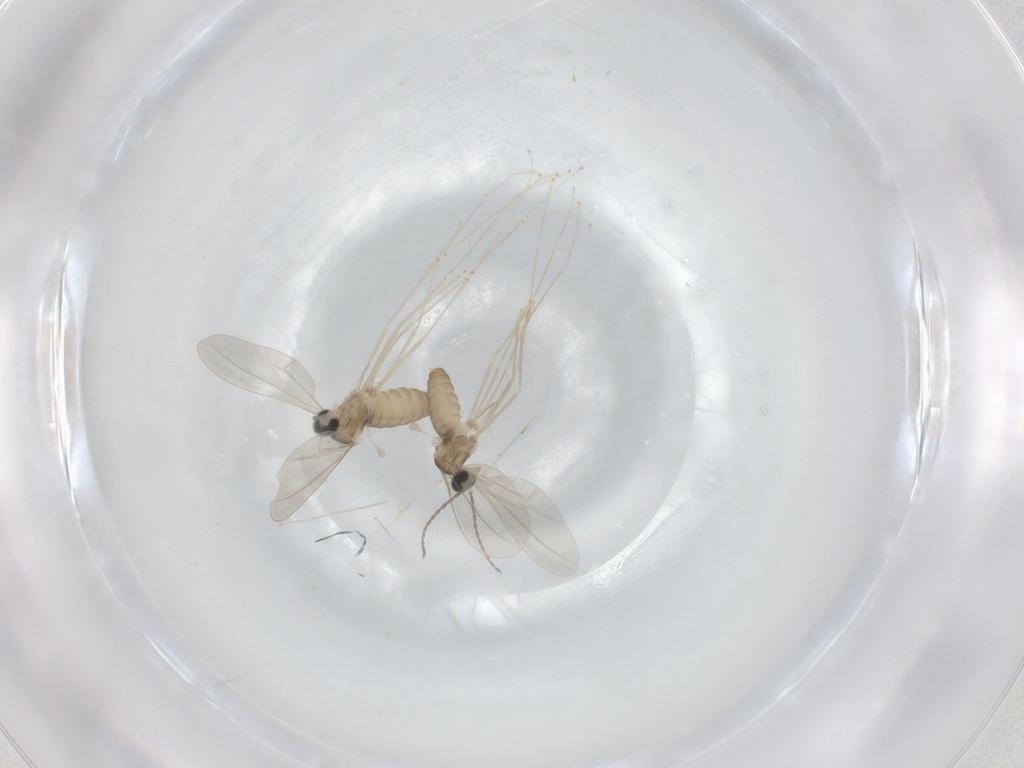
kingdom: Animalia
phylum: Arthropoda
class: Insecta
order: Diptera
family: Cecidomyiidae
